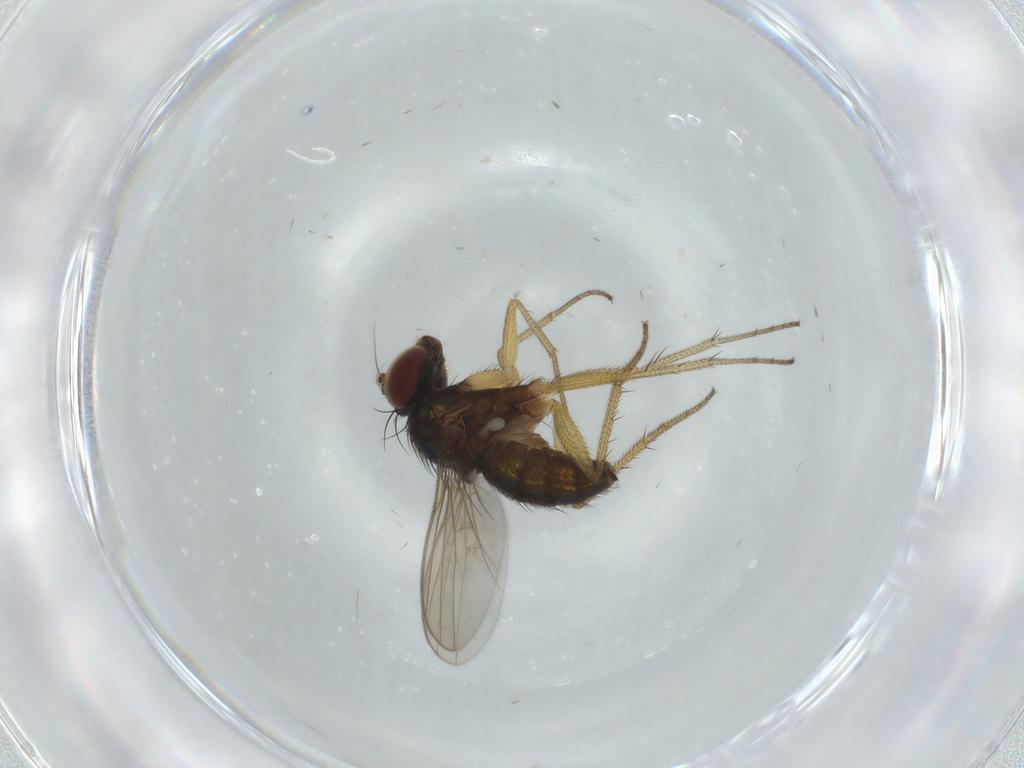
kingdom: Animalia
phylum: Arthropoda
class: Insecta
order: Diptera
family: Dolichopodidae
